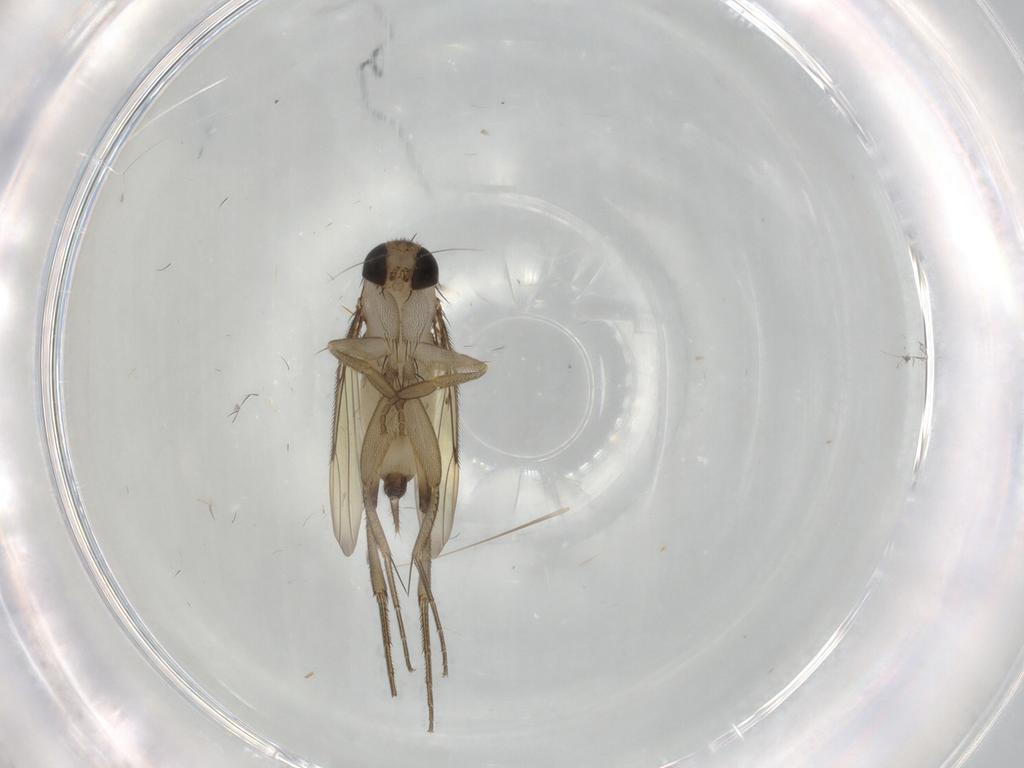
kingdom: Animalia
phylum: Arthropoda
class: Insecta
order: Diptera
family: Drosophilidae
